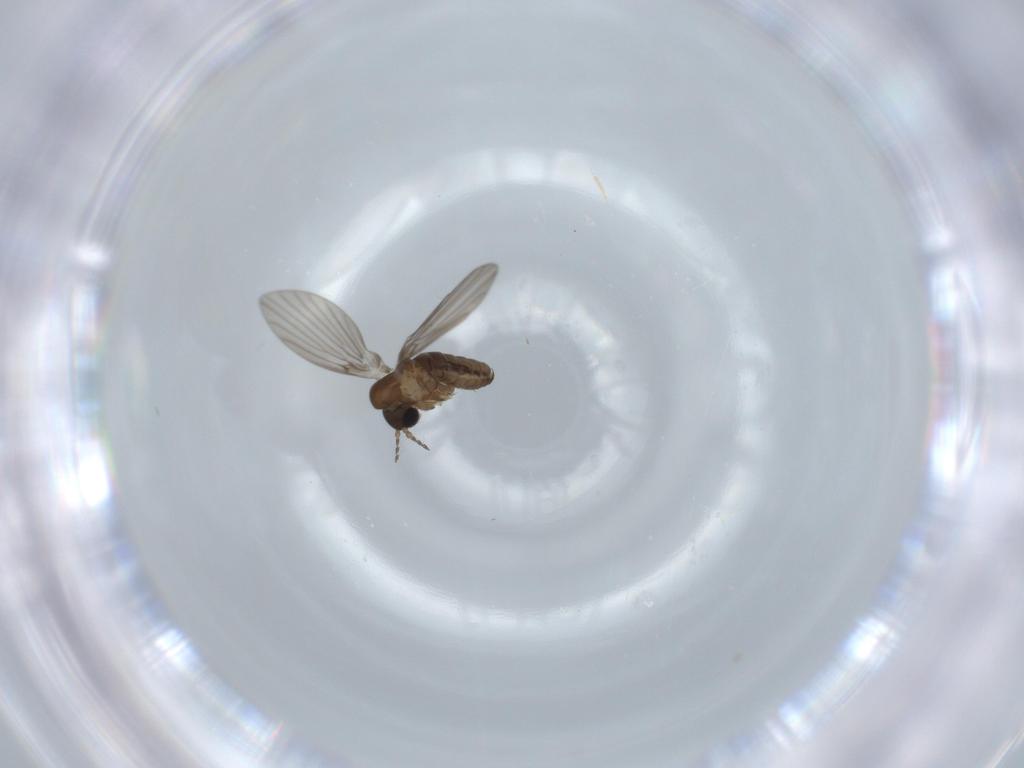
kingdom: Animalia
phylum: Arthropoda
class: Insecta
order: Diptera
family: Psychodidae
